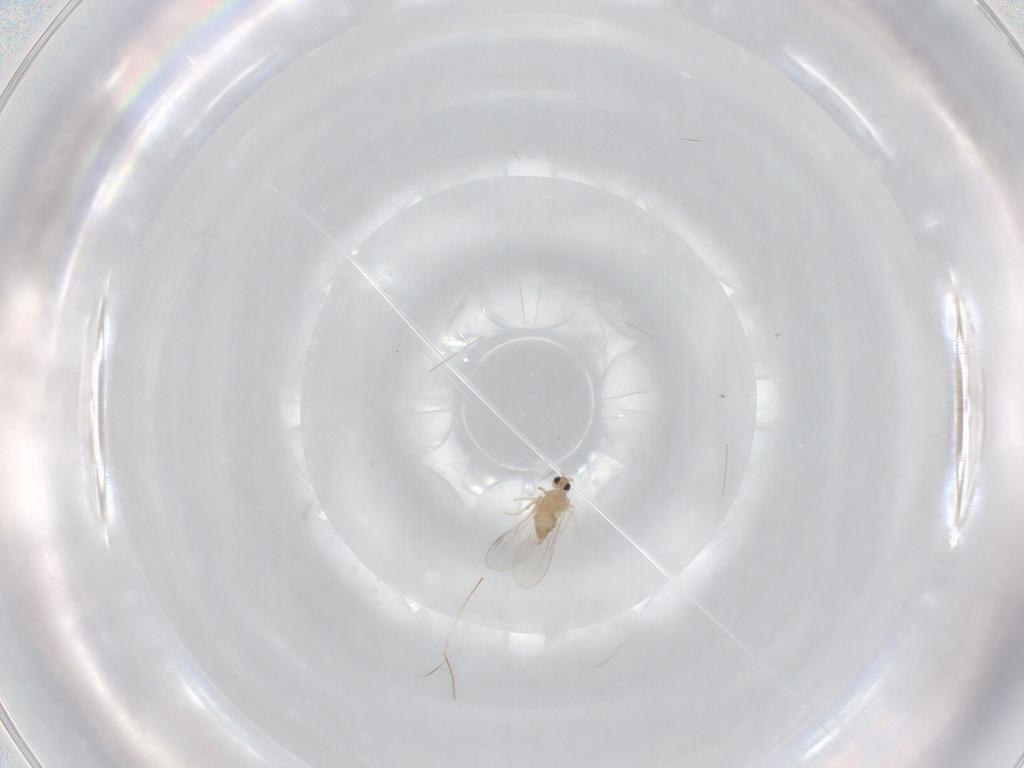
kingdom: Animalia
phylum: Arthropoda
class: Insecta
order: Diptera
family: Cecidomyiidae
